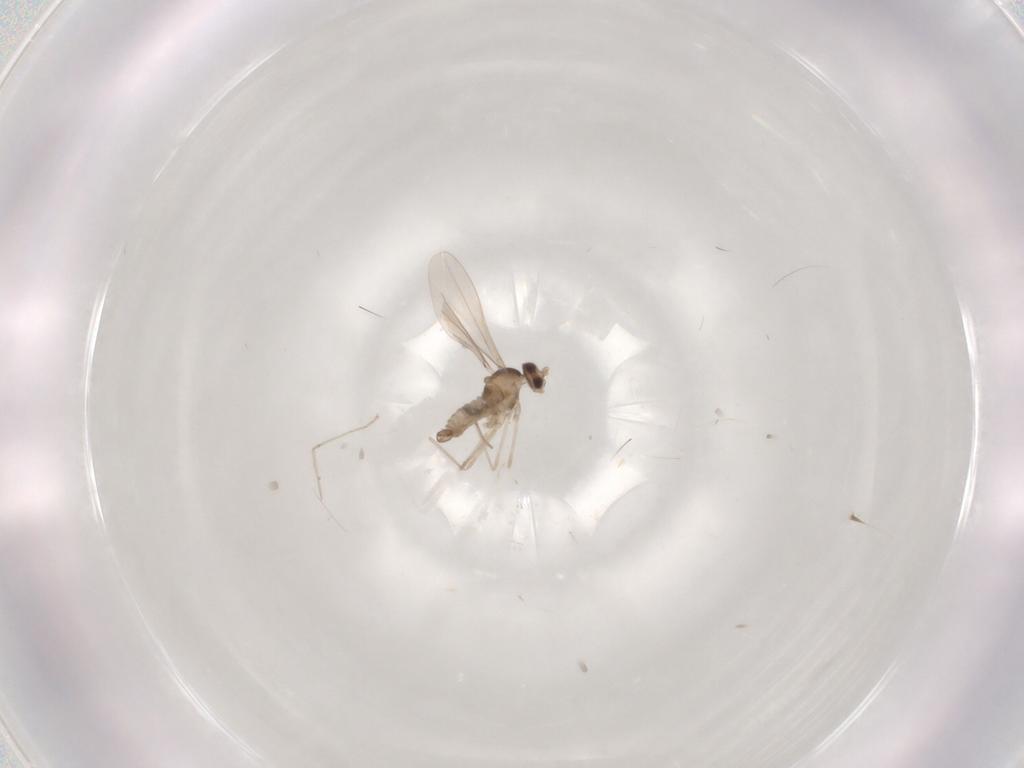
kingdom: Animalia
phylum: Arthropoda
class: Insecta
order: Diptera
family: Cecidomyiidae
